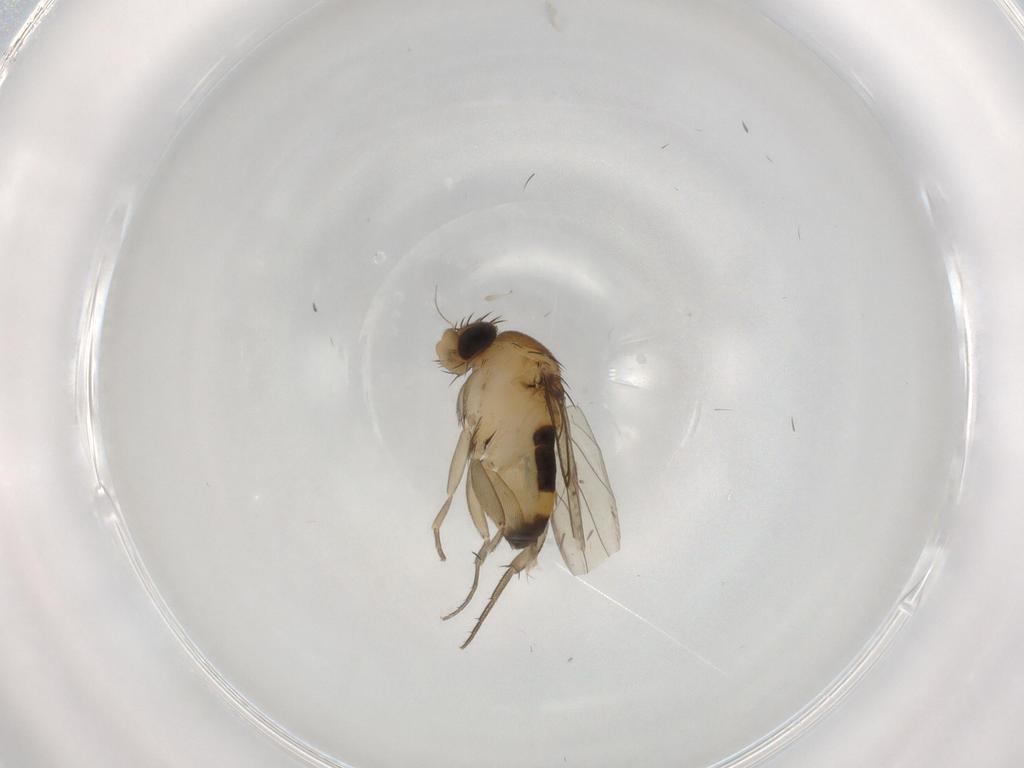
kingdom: Animalia
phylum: Arthropoda
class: Insecta
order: Diptera
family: Phoridae
